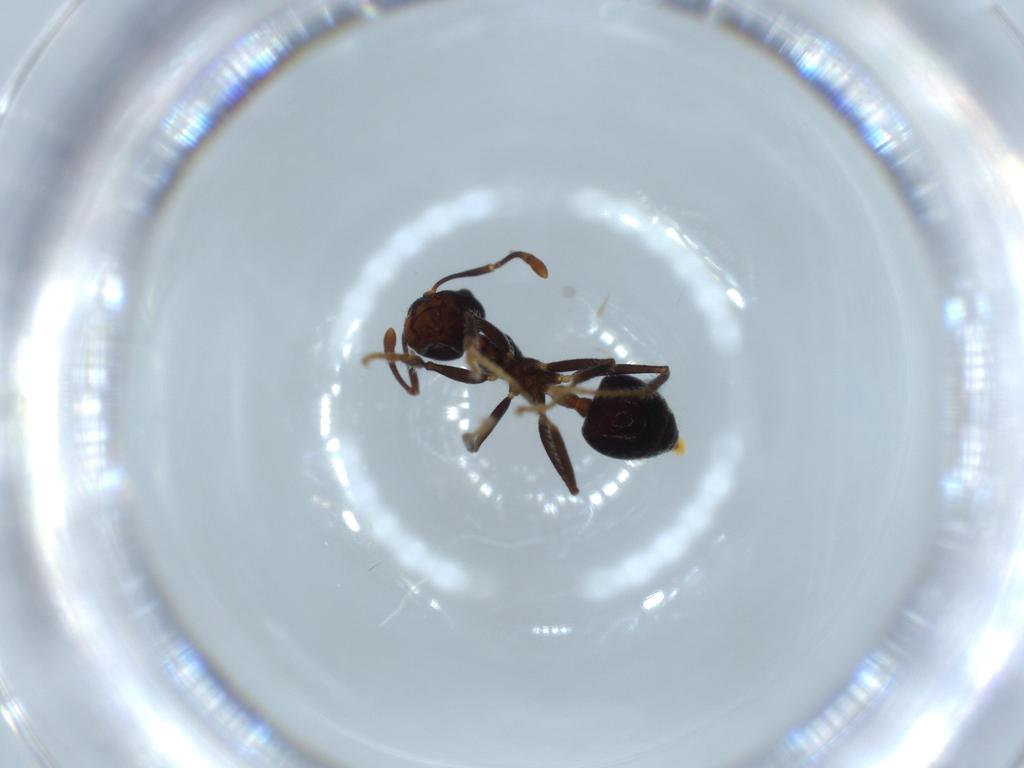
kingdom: Animalia
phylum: Arthropoda
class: Insecta
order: Hymenoptera
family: Formicidae
